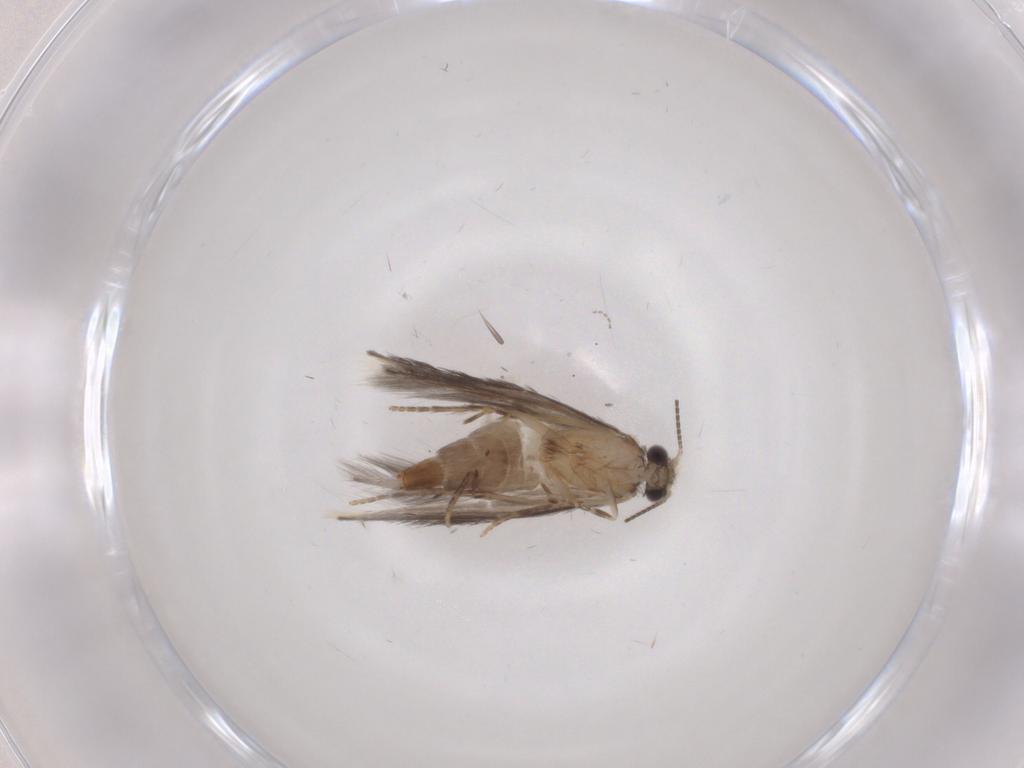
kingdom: Animalia
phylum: Arthropoda
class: Insecta
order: Trichoptera
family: Hydroptilidae
